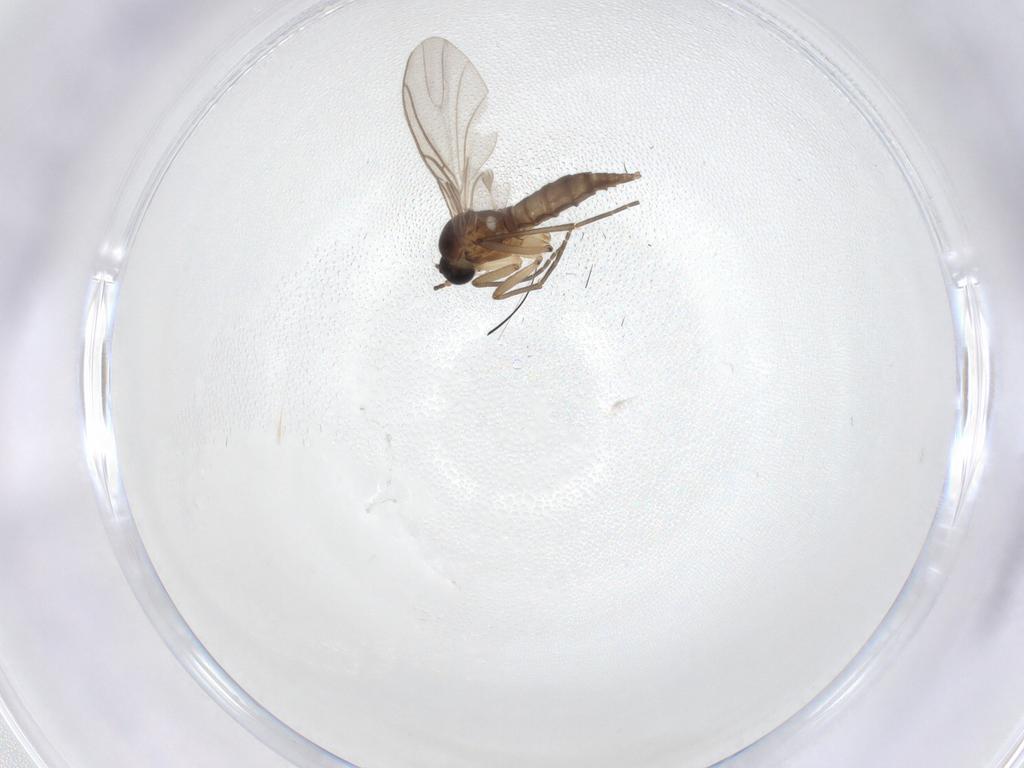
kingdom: Animalia
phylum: Arthropoda
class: Insecta
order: Diptera
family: Sciaridae
